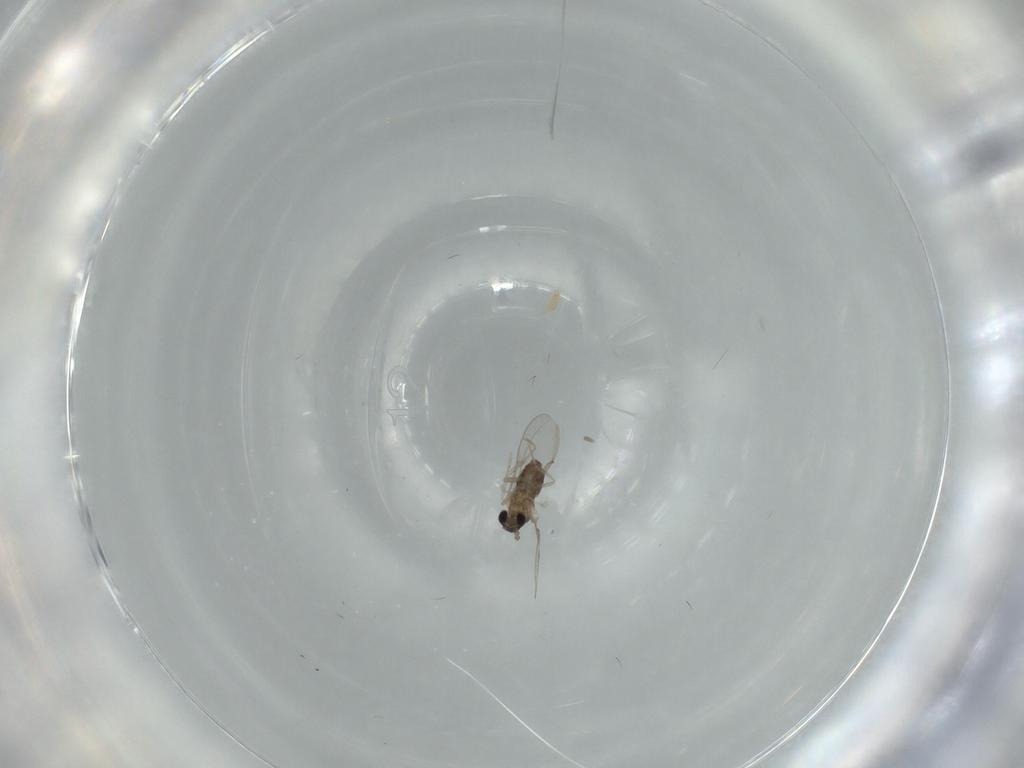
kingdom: Animalia
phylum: Arthropoda
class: Insecta
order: Diptera
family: Cecidomyiidae
